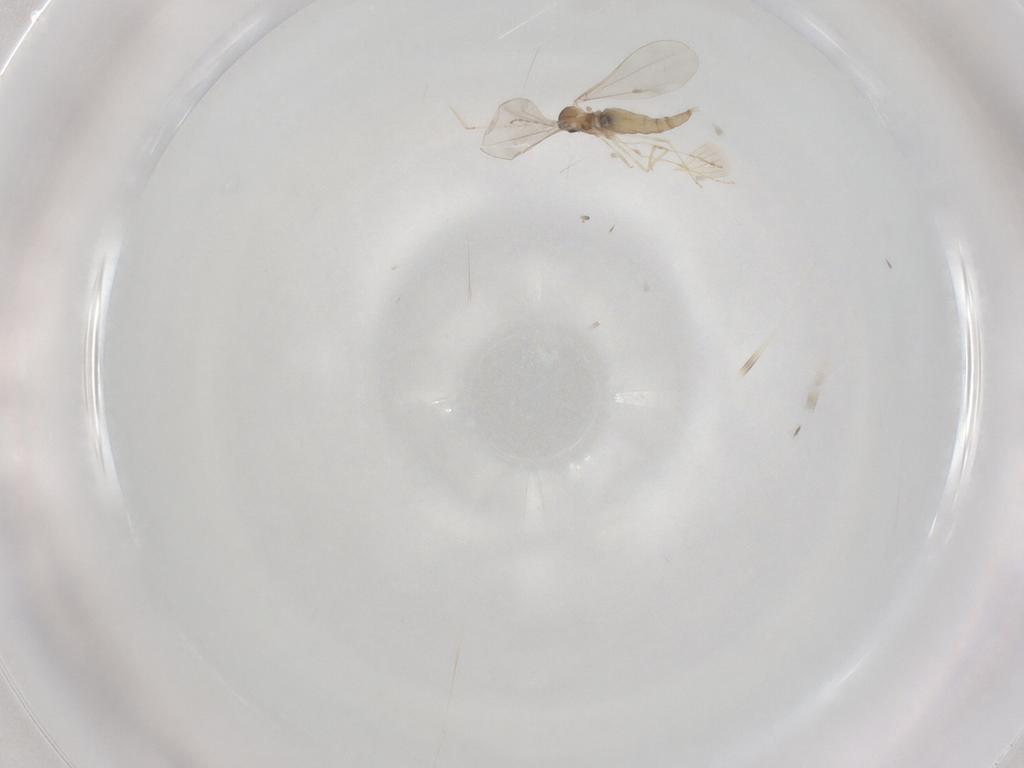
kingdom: Animalia
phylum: Arthropoda
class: Insecta
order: Diptera
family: Cecidomyiidae
